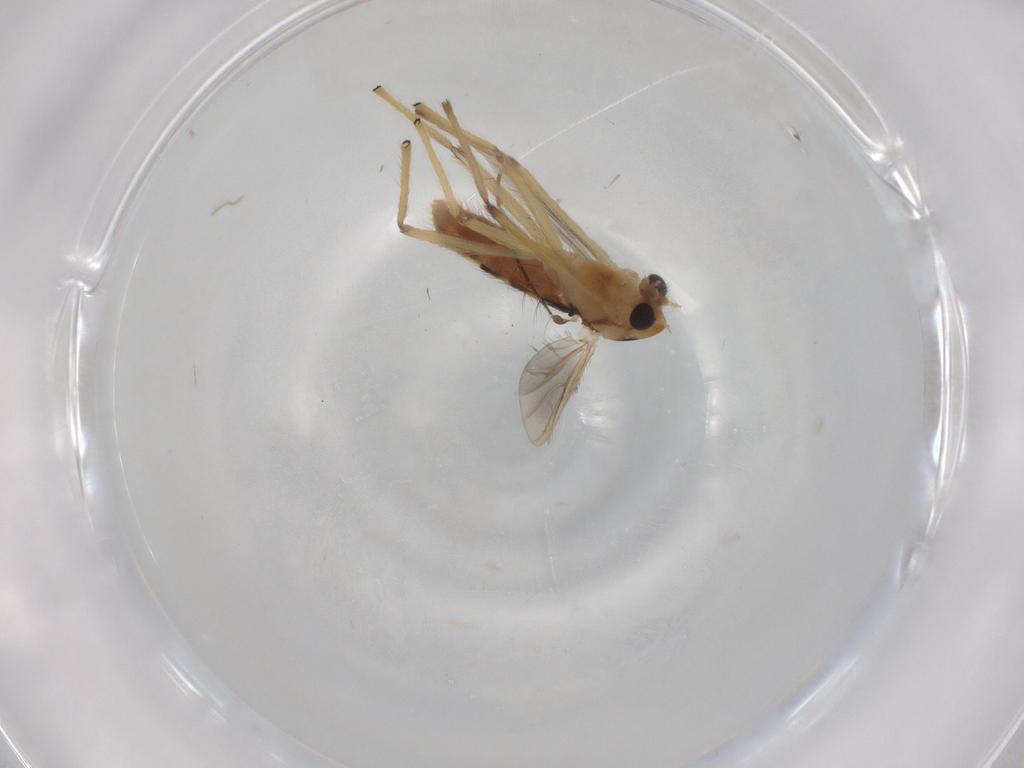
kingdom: Animalia
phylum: Arthropoda
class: Insecta
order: Diptera
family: Chironomidae
